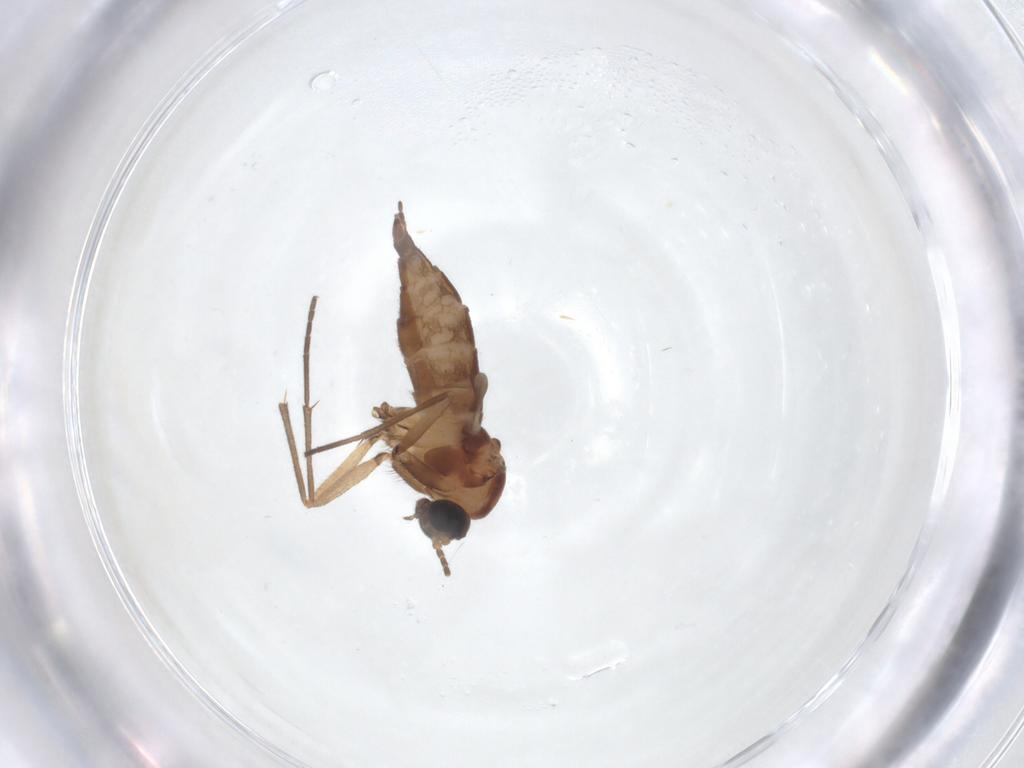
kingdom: Animalia
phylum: Arthropoda
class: Insecta
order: Diptera
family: Sciaridae
